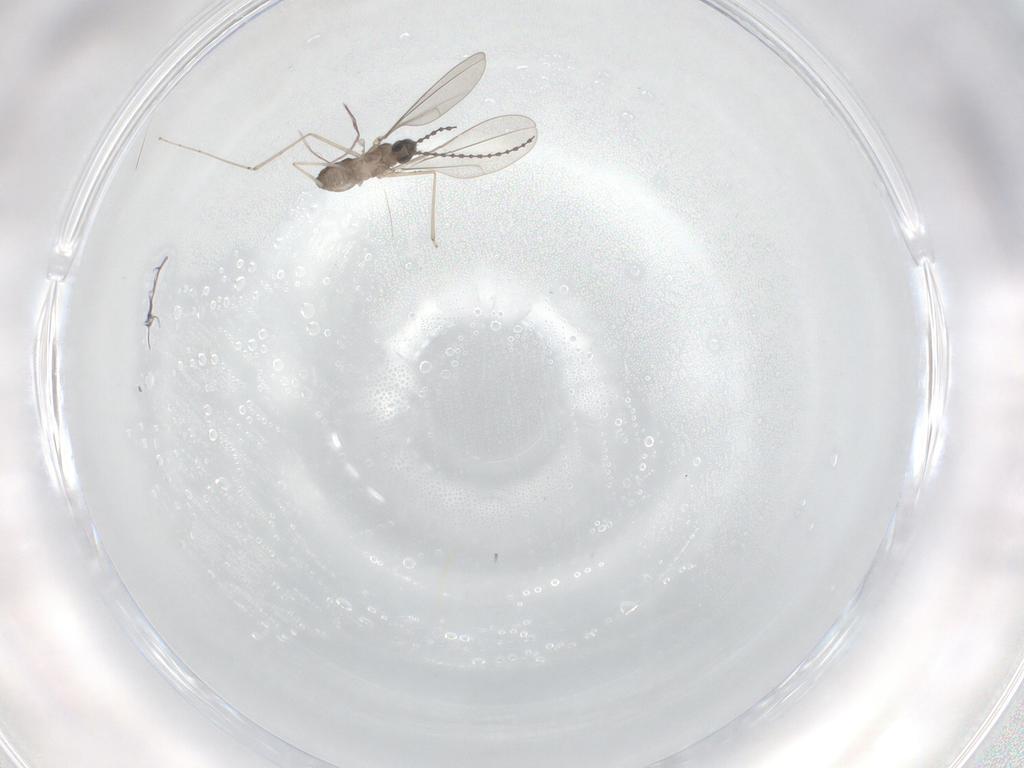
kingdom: Animalia
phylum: Arthropoda
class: Insecta
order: Diptera
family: Cecidomyiidae
